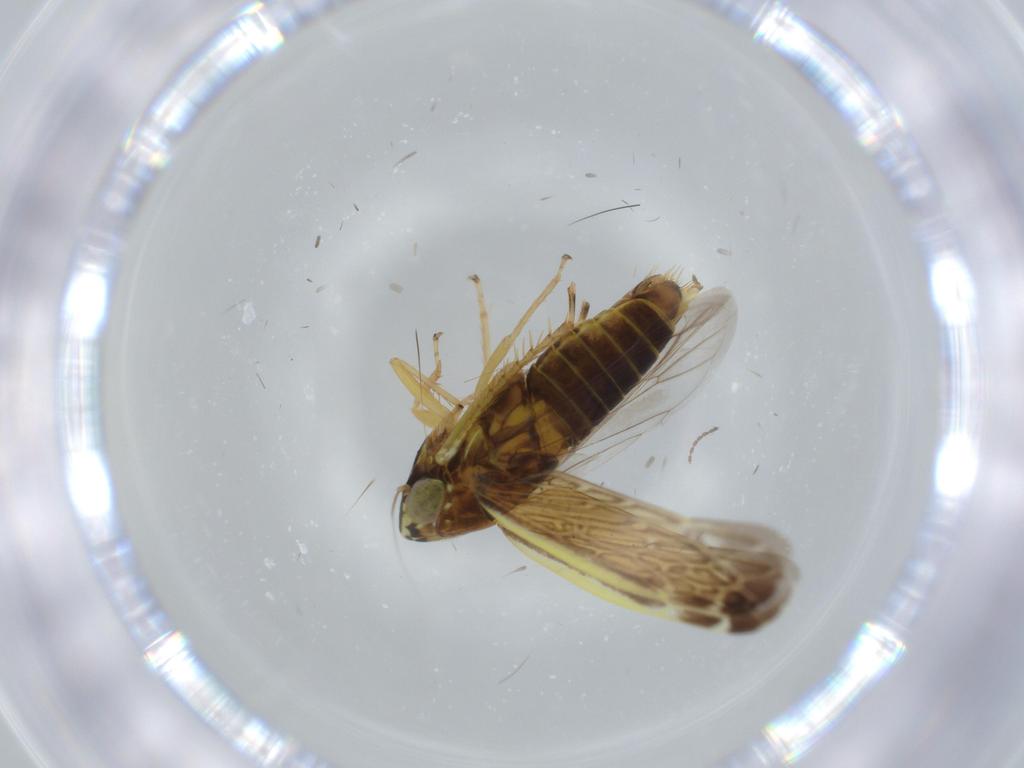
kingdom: Animalia
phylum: Arthropoda
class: Insecta
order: Hemiptera
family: Cicadellidae
